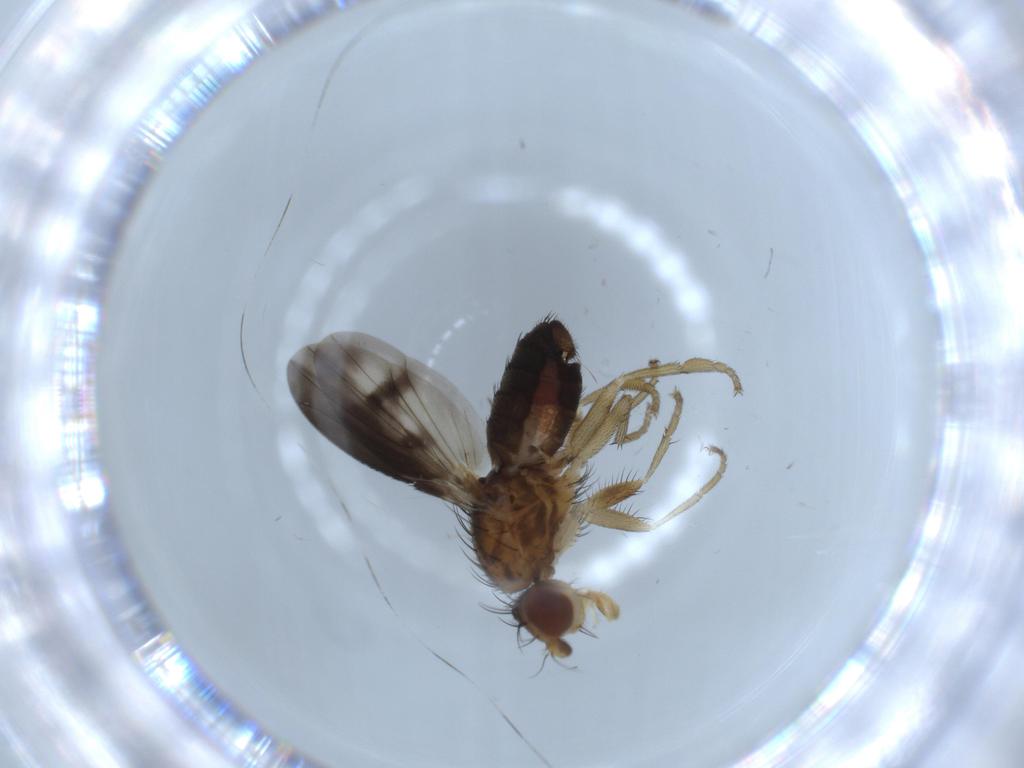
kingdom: Animalia
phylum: Arthropoda
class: Insecta
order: Diptera
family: Heleomyzidae
